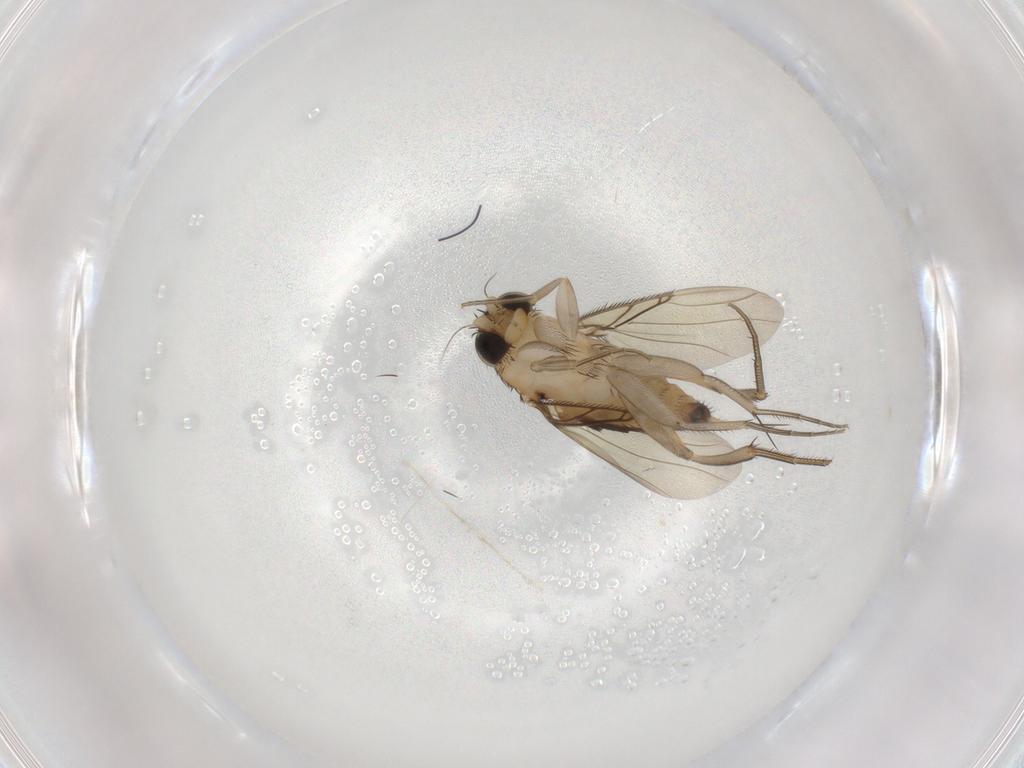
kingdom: Animalia
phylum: Arthropoda
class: Insecta
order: Diptera
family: Phoridae
